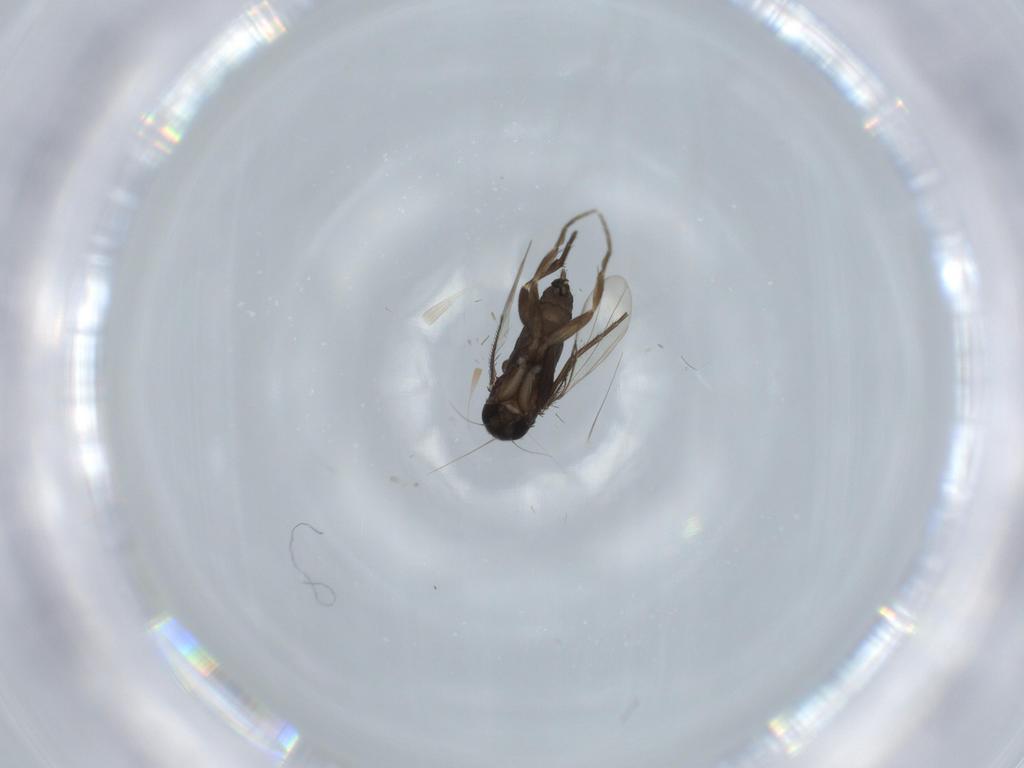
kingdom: Animalia
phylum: Arthropoda
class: Insecta
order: Diptera
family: Phoridae
